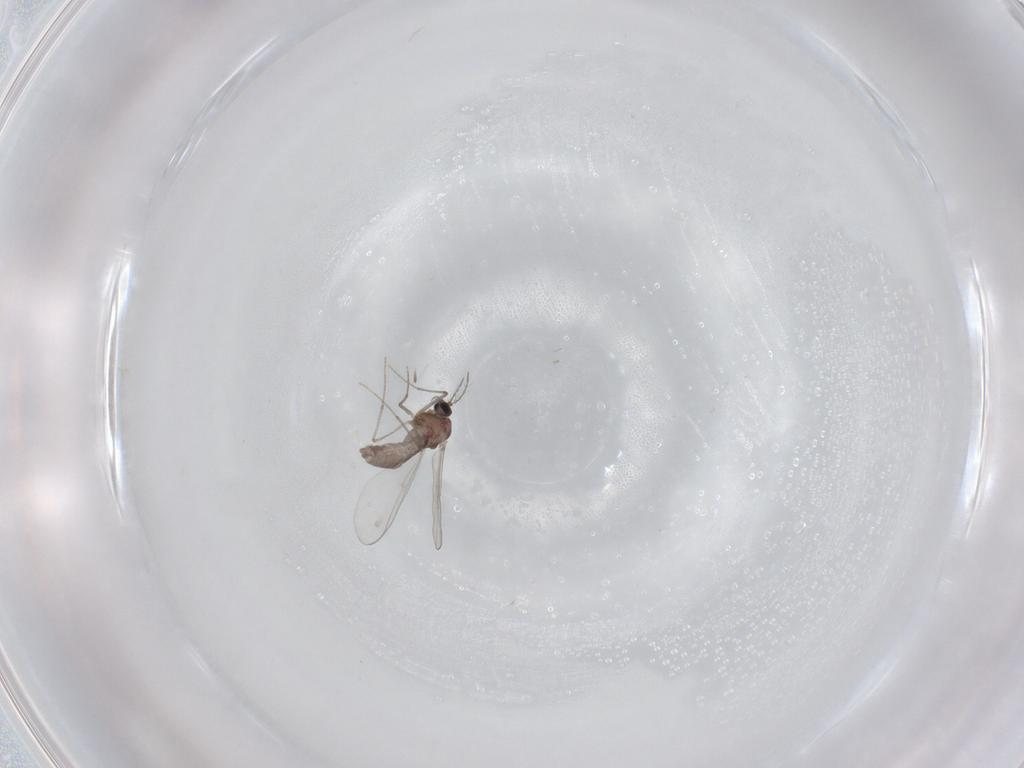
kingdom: Animalia
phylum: Arthropoda
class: Insecta
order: Diptera
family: Chironomidae
